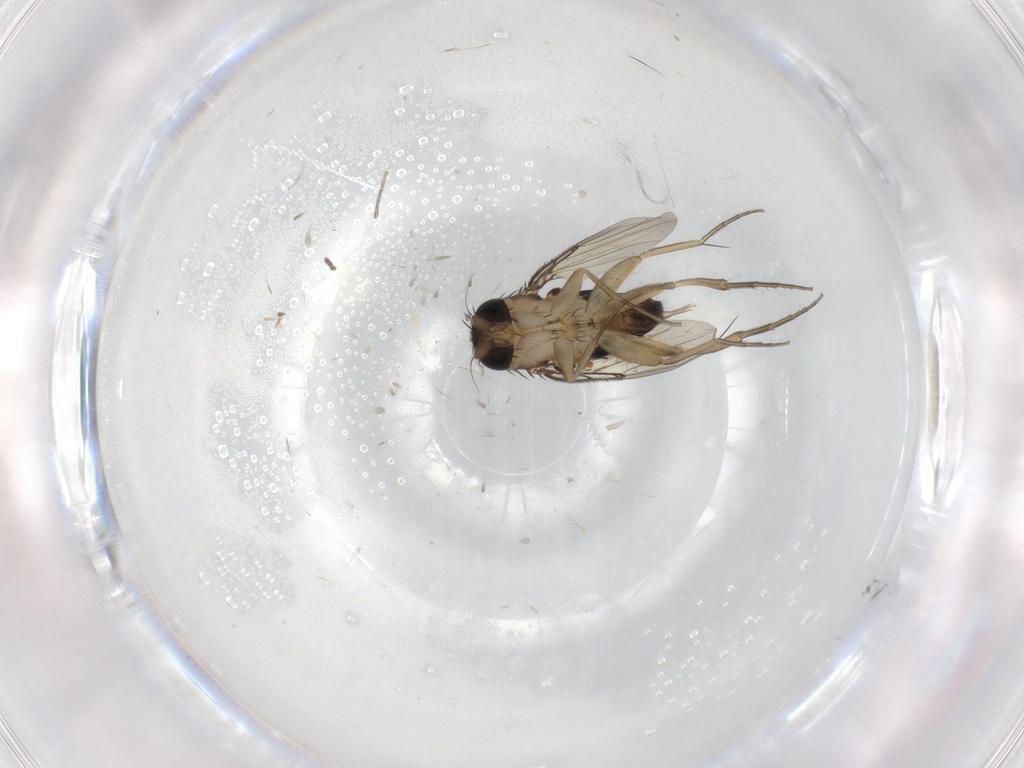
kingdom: Animalia
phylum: Arthropoda
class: Insecta
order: Diptera
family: Phoridae
